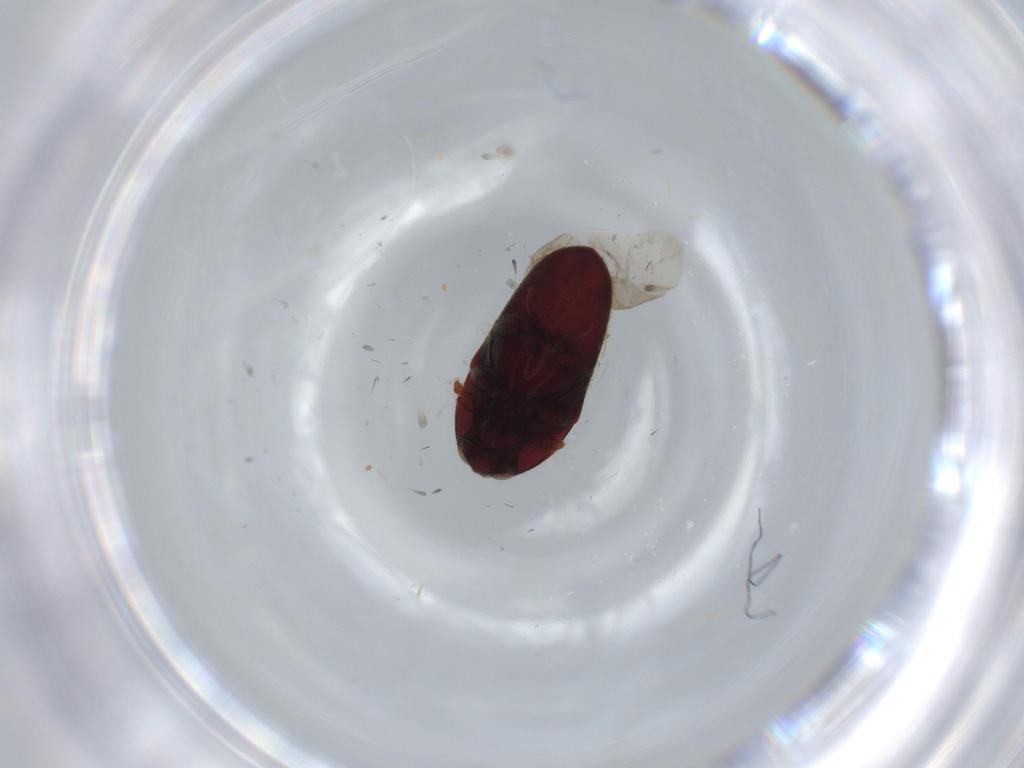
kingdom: Animalia
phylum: Arthropoda
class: Insecta
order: Coleoptera
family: Throscidae
